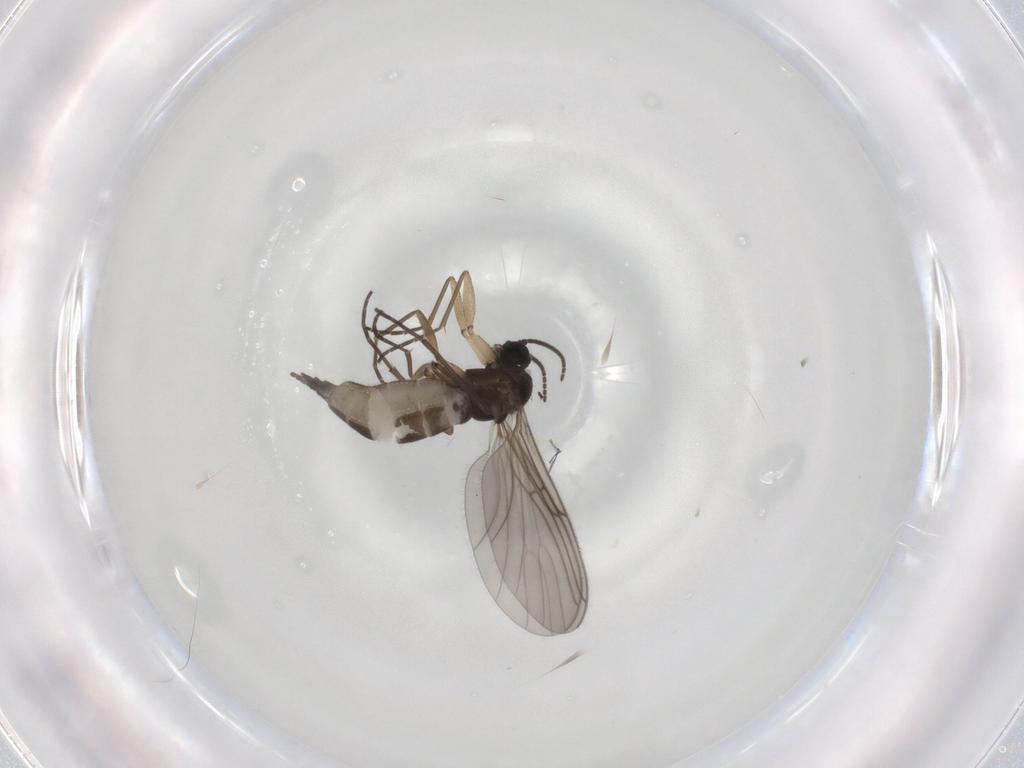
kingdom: Animalia
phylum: Arthropoda
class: Insecta
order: Diptera
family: Sciaridae
